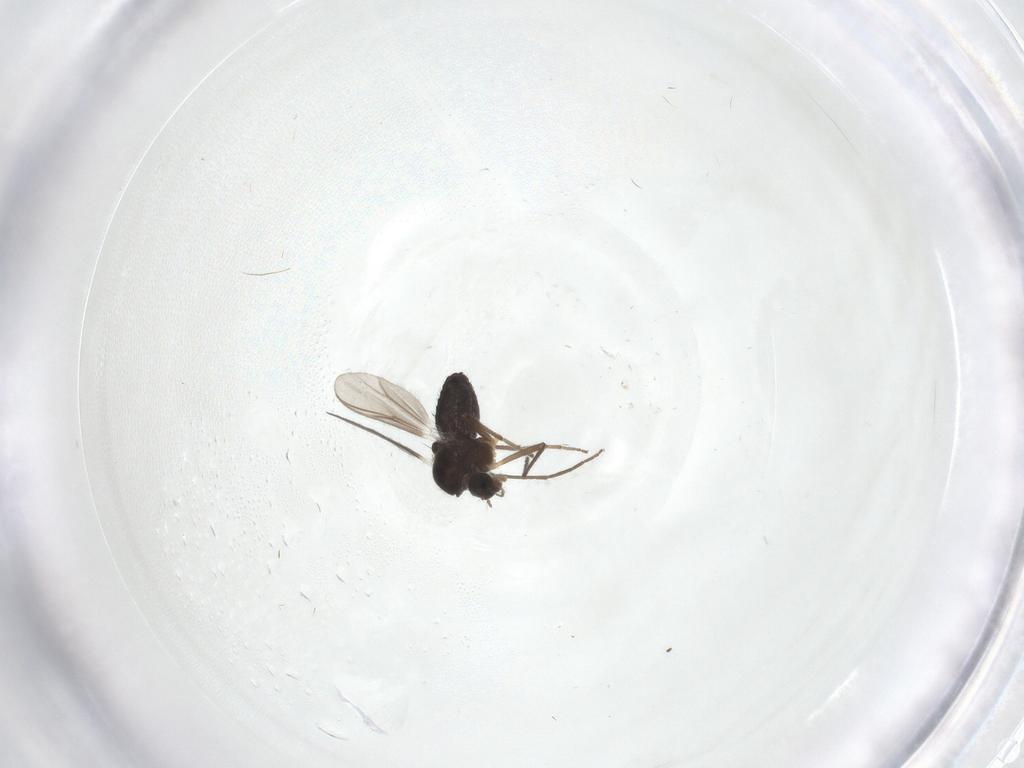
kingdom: Animalia
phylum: Arthropoda
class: Insecta
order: Diptera
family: Chironomidae
